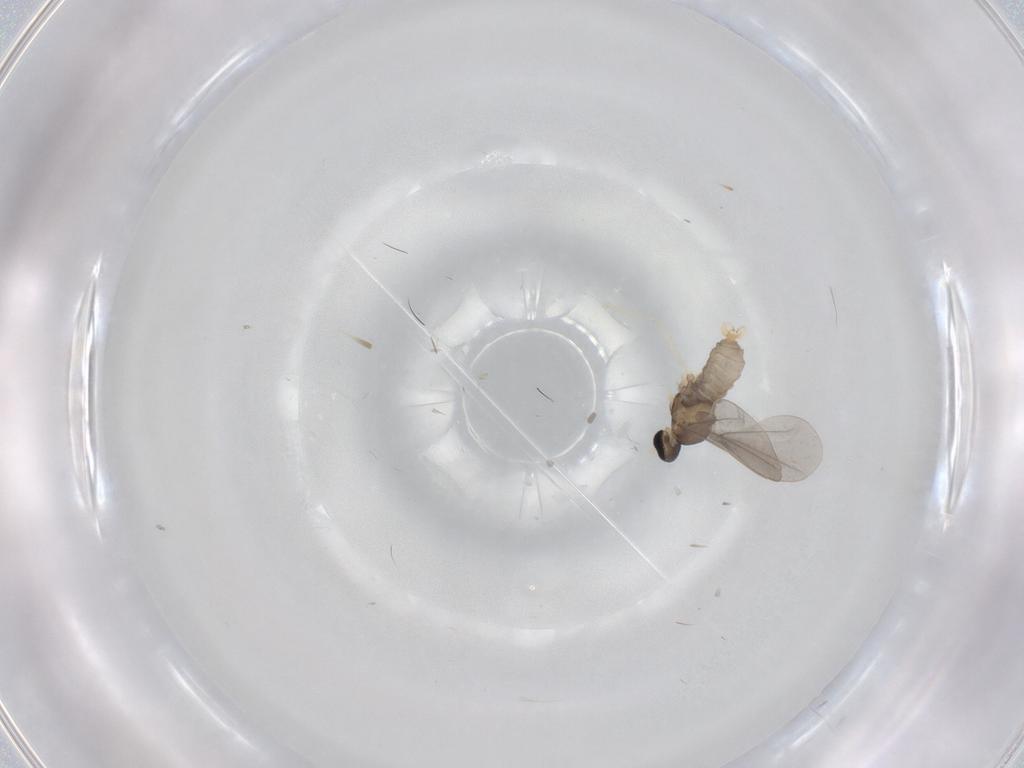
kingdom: Animalia
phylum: Arthropoda
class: Insecta
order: Diptera
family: Cecidomyiidae
